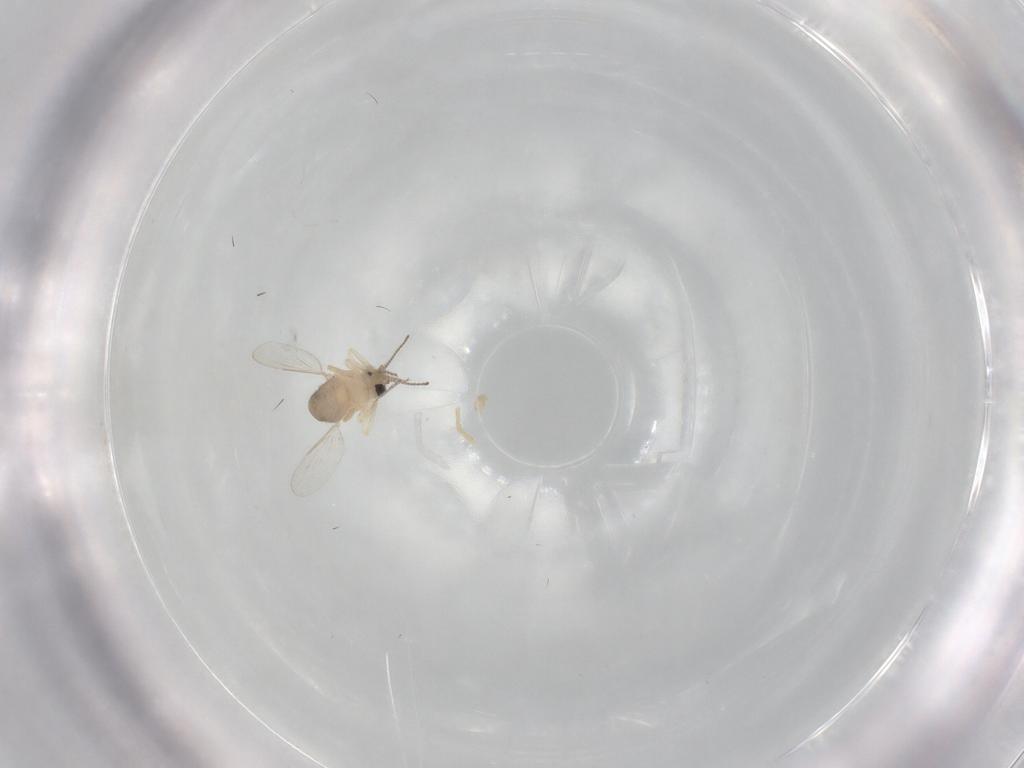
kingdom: Animalia
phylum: Arthropoda
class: Insecta
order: Diptera
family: Ceratopogonidae
